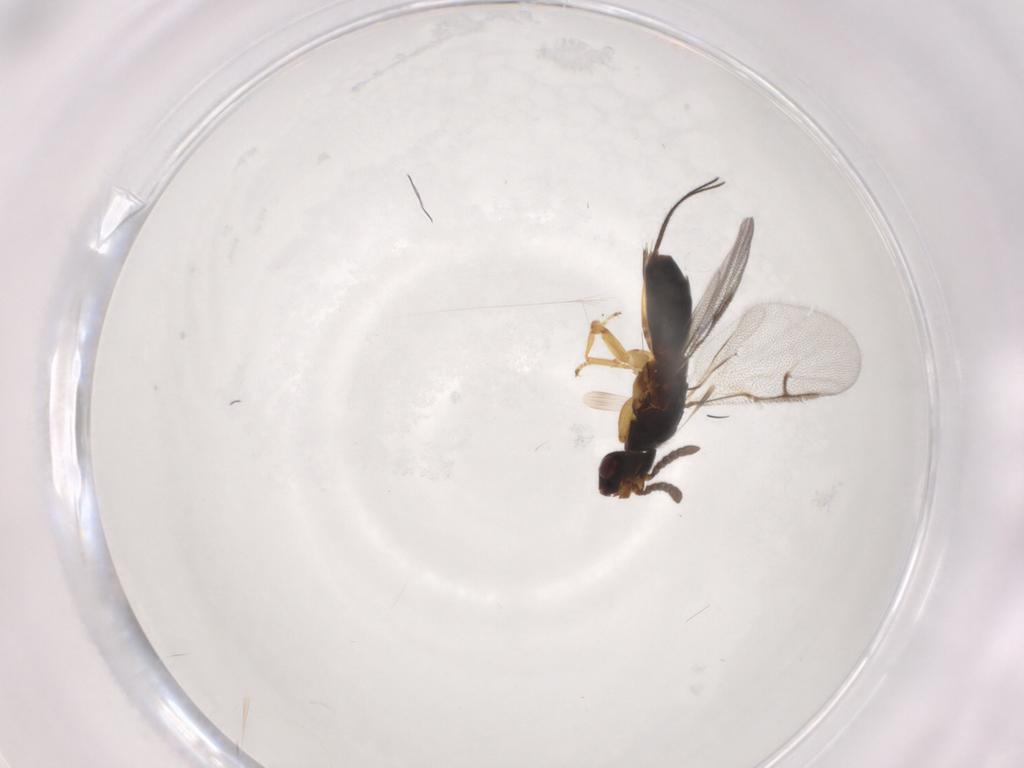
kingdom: Animalia
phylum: Arthropoda
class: Insecta
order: Hymenoptera
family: Agaonidae
